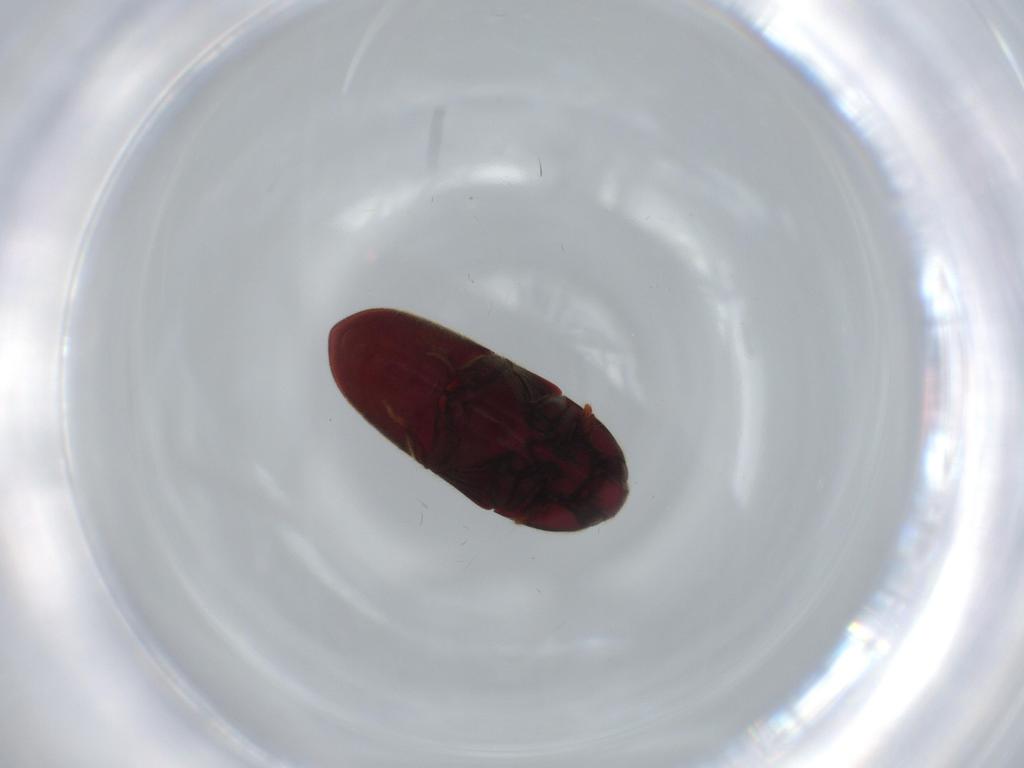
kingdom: Animalia
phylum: Arthropoda
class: Insecta
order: Coleoptera
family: Throscidae
